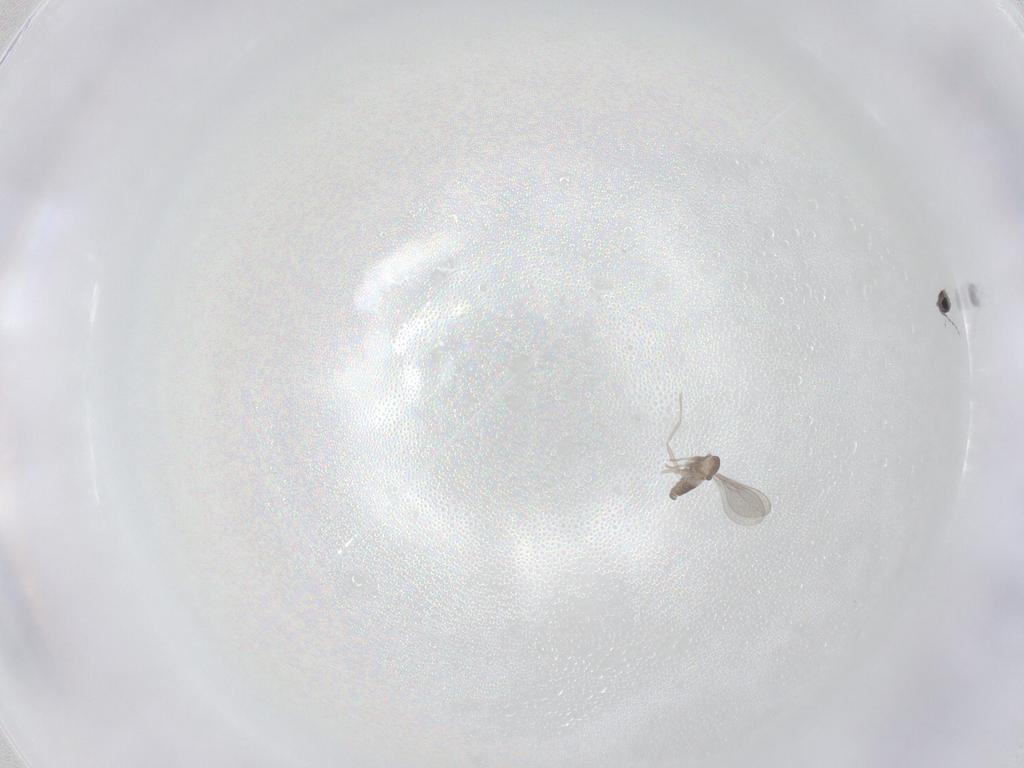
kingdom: Animalia
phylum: Arthropoda
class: Insecta
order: Diptera
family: Cecidomyiidae
